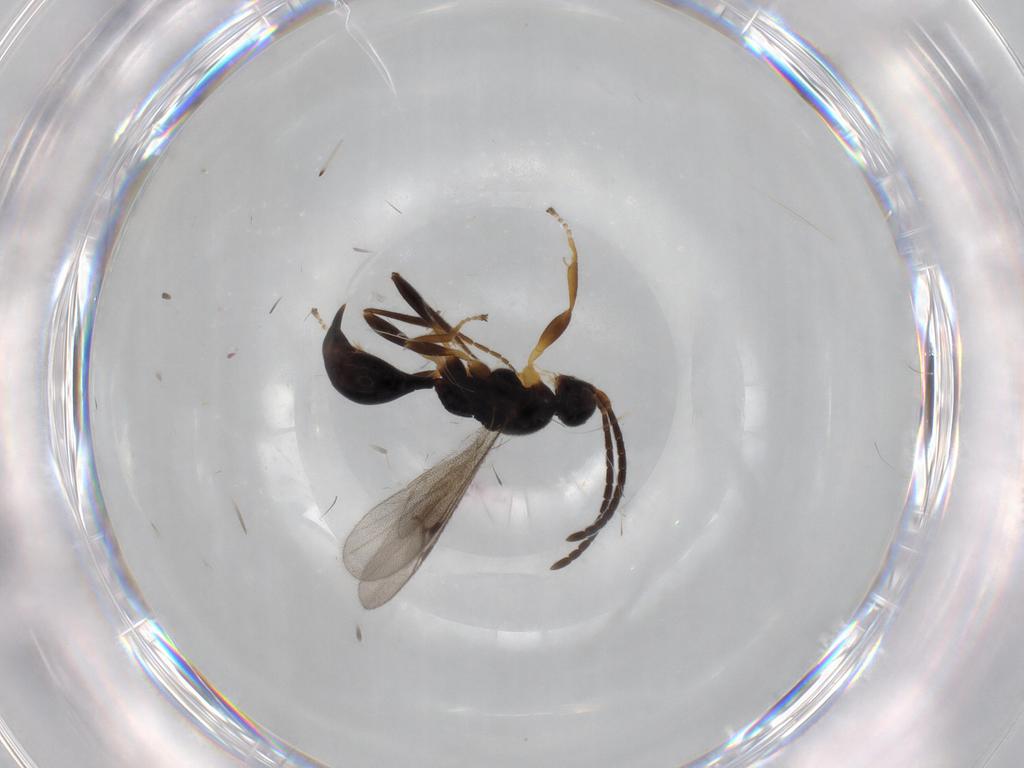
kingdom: Animalia
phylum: Arthropoda
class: Insecta
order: Hymenoptera
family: Proctotrupidae
